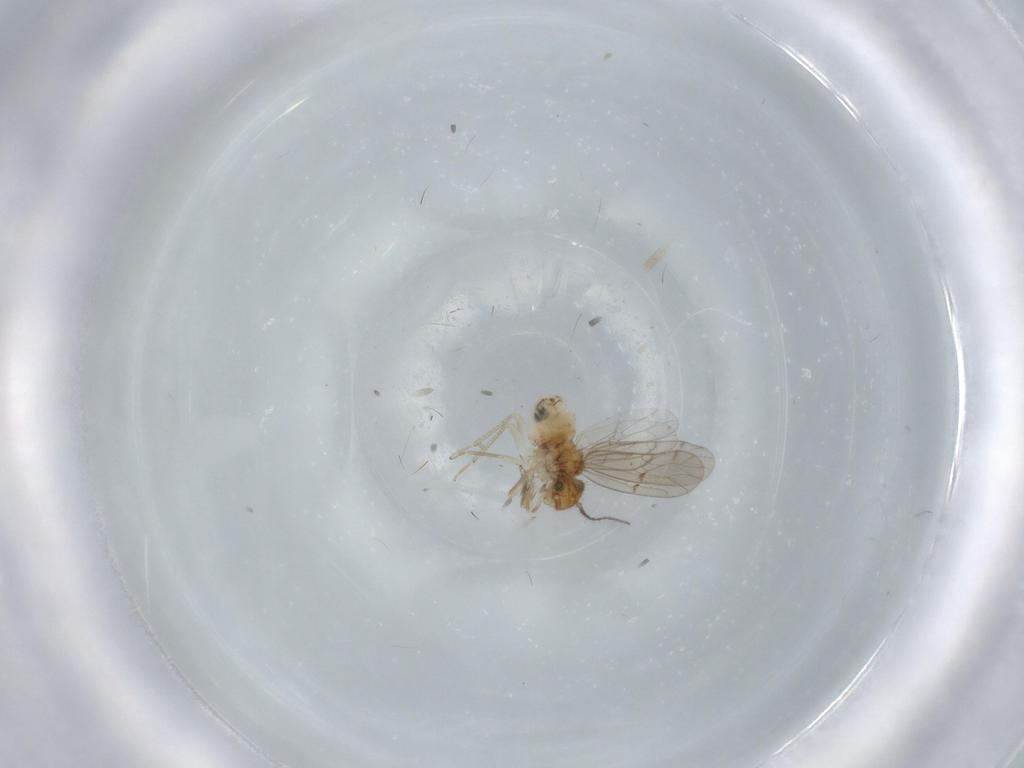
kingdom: Animalia
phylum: Arthropoda
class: Insecta
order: Psocodea
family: Ectopsocidae
